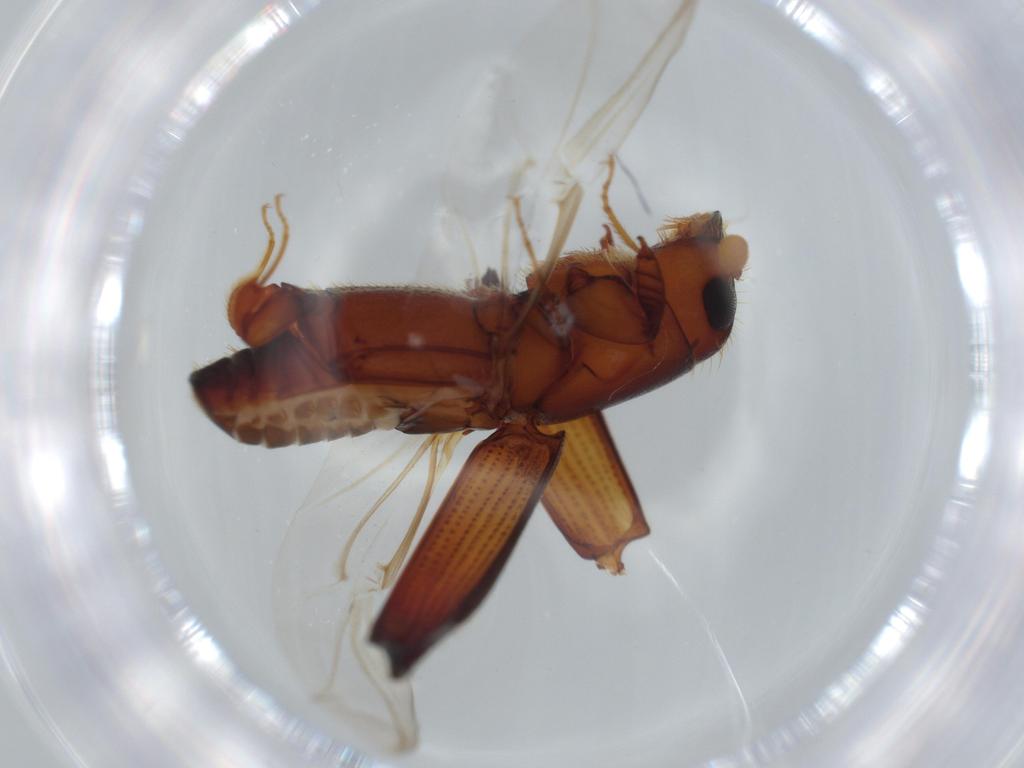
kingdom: Animalia
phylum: Arthropoda
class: Insecta
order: Coleoptera
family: Curculionidae
